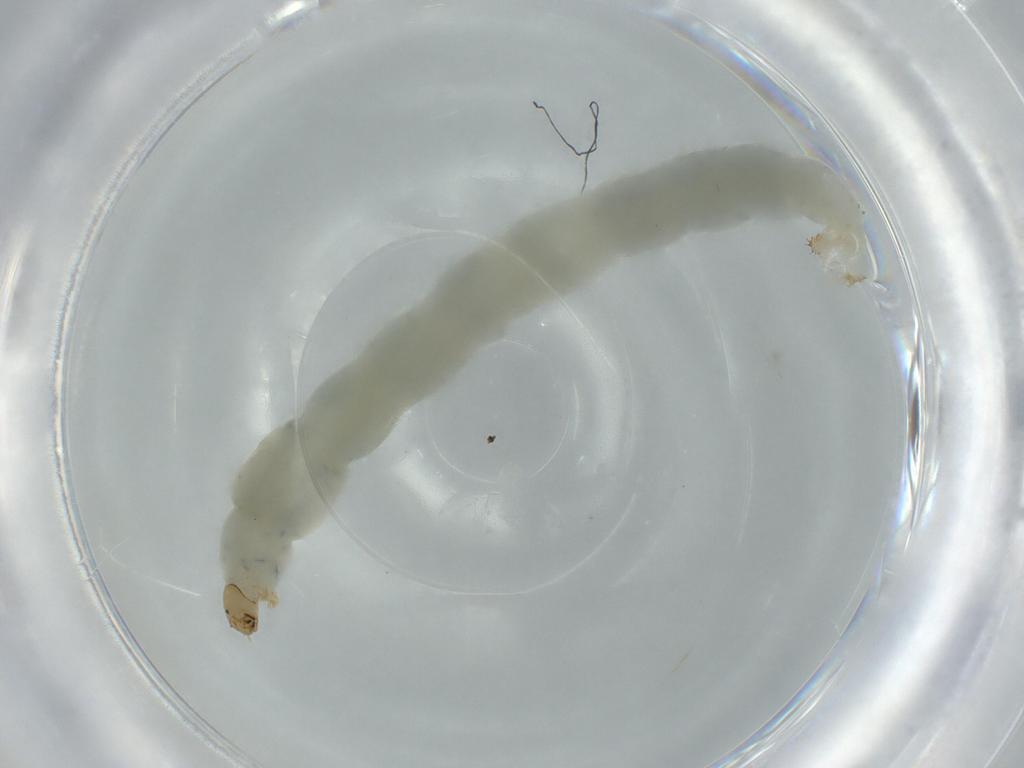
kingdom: Animalia
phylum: Arthropoda
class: Insecta
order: Diptera
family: Chironomidae
